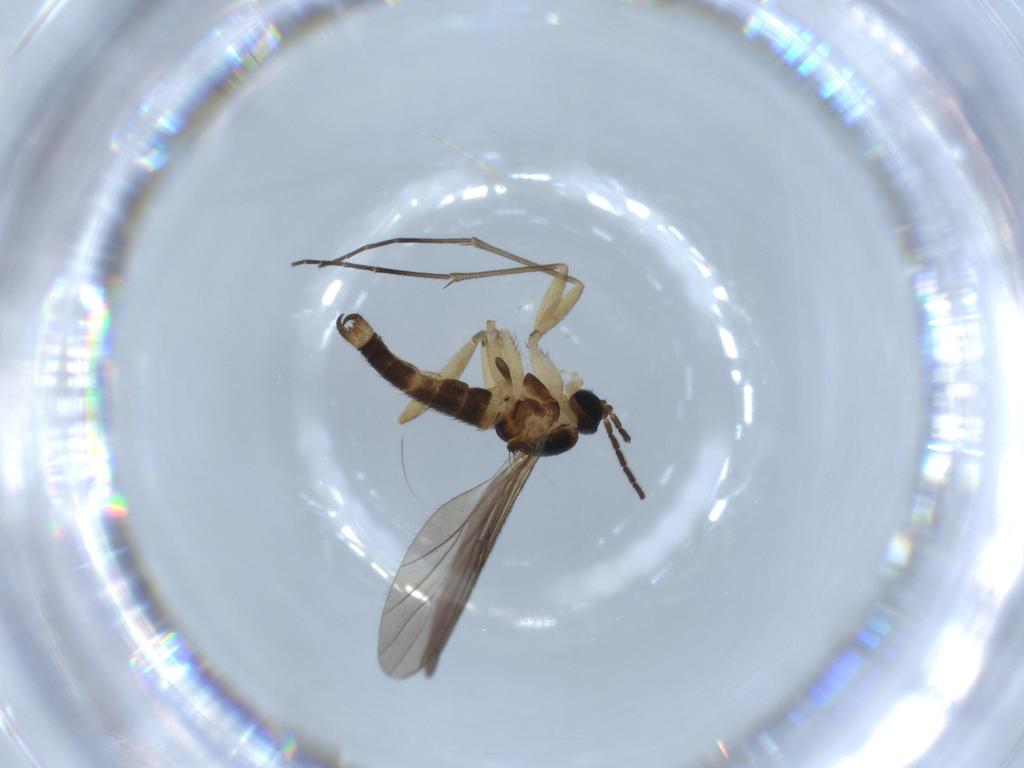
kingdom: Animalia
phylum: Arthropoda
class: Insecta
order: Diptera
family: Sciaridae
